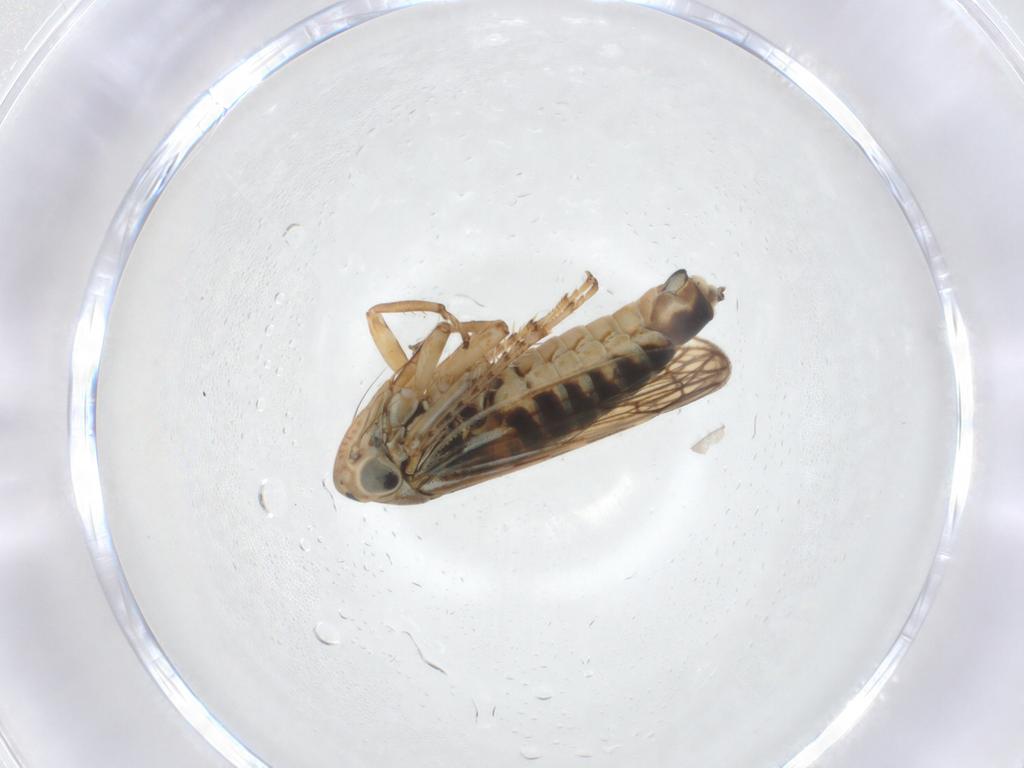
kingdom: Animalia
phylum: Arthropoda
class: Insecta
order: Hemiptera
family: Cicadellidae
